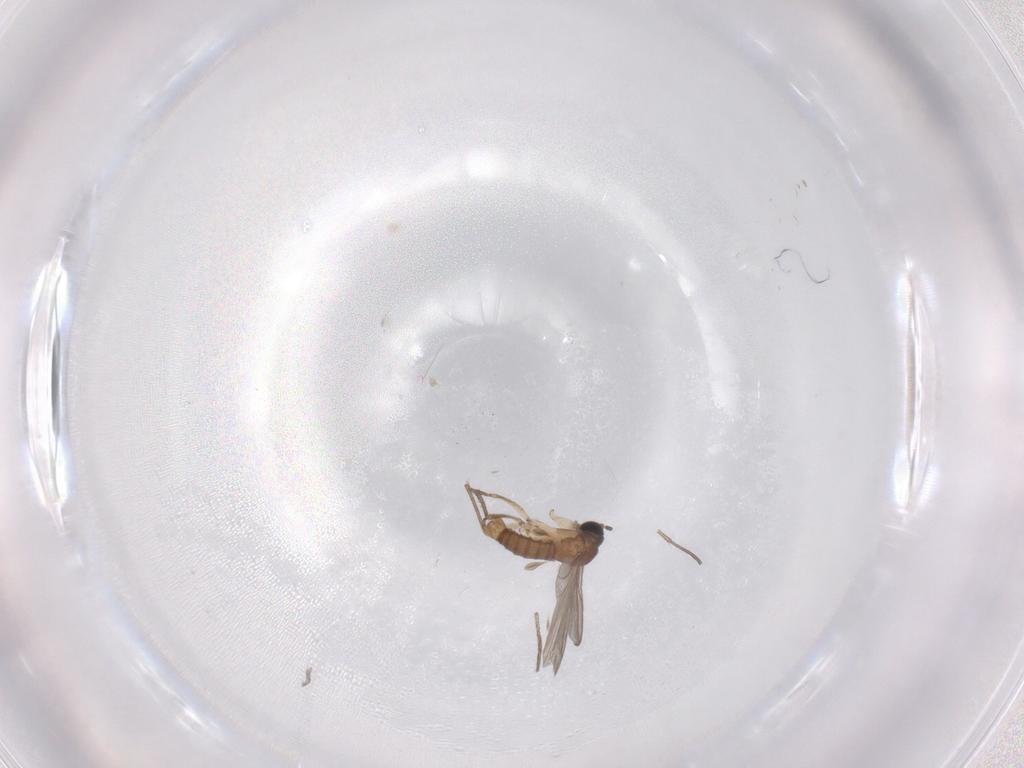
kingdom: Animalia
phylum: Arthropoda
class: Insecta
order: Diptera
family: Sciaridae
